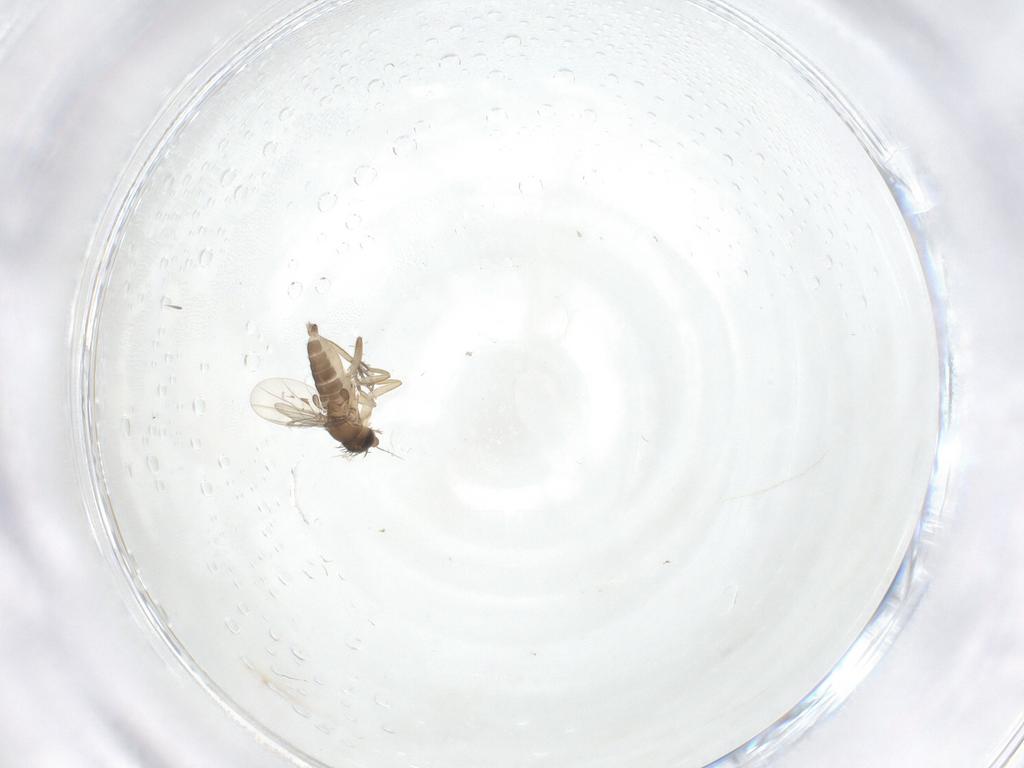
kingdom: Animalia
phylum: Arthropoda
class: Insecta
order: Diptera
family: Phoridae
